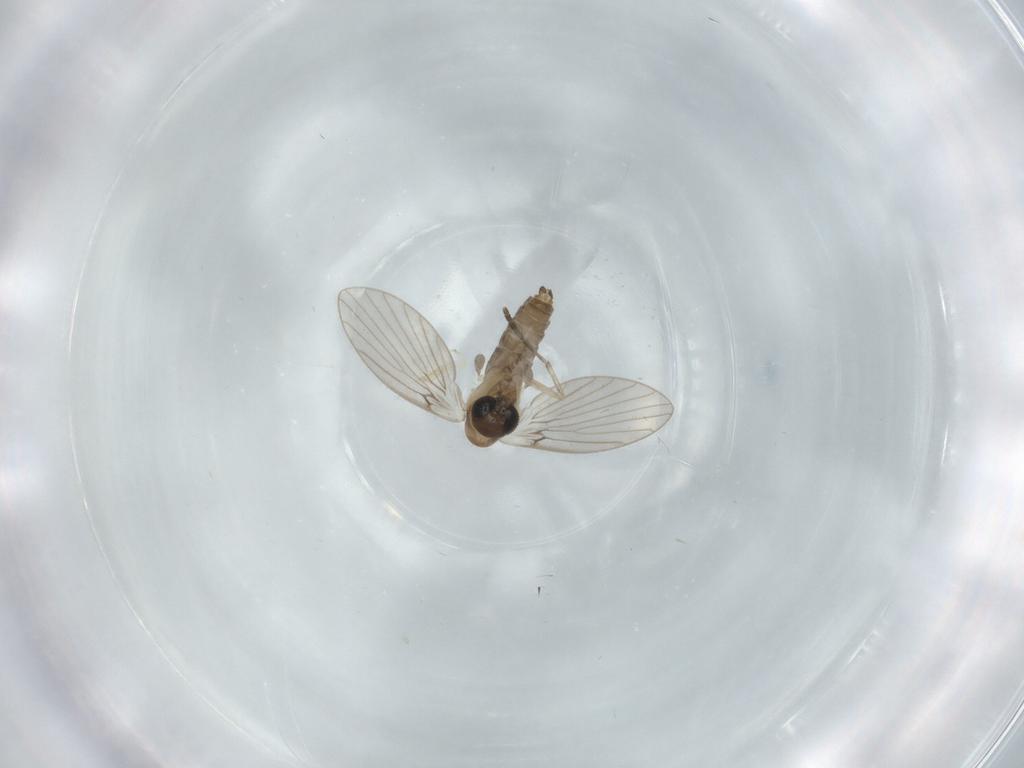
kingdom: Animalia
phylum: Arthropoda
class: Insecta
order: Diptera
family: Psychodidae
